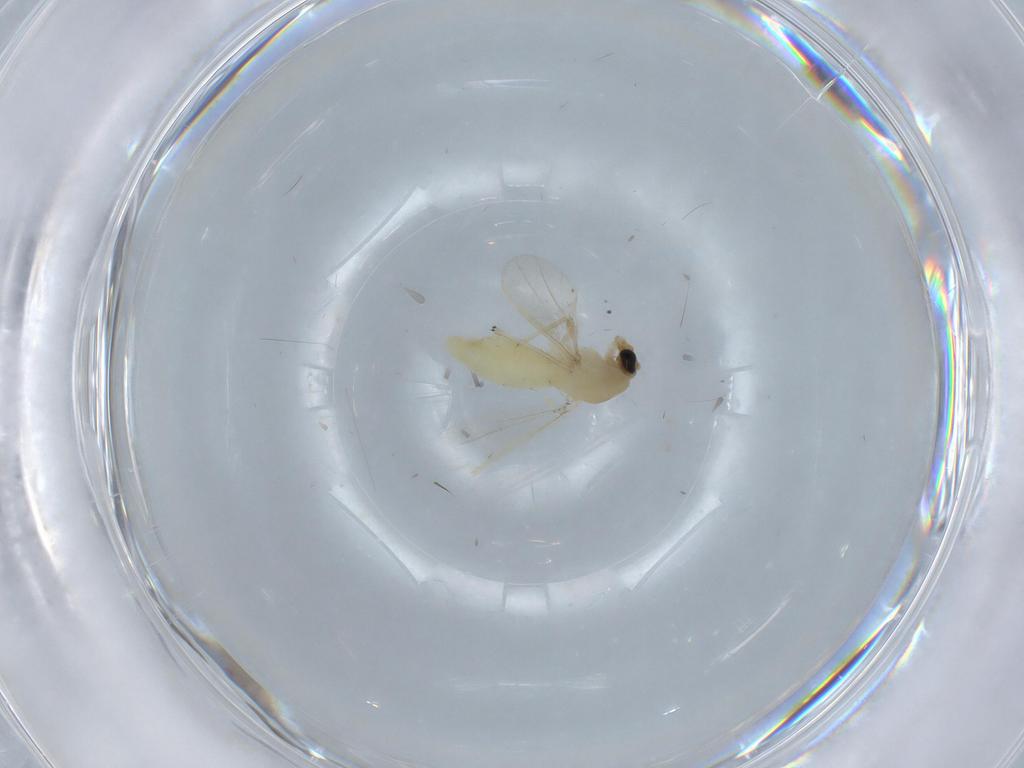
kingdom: Animalia
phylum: Arthropoda
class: Insecta
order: Diptera
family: Chironomidae
